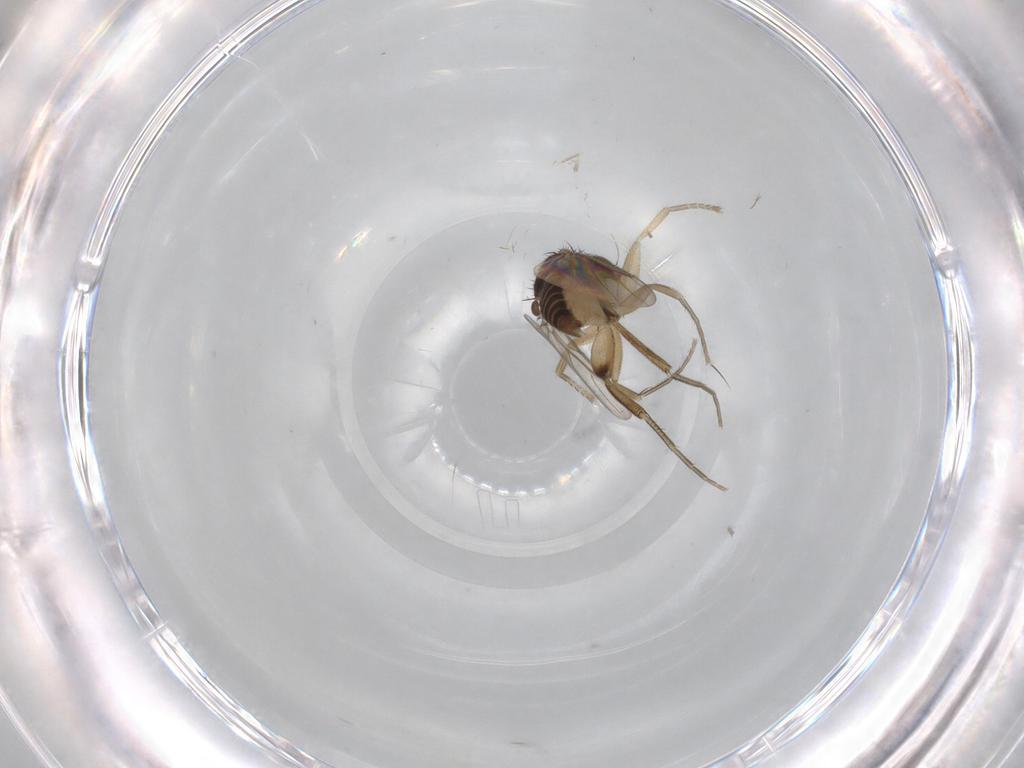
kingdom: Animalia
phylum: Arthropoda
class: Insecta
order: Diptera
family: Phoridae
